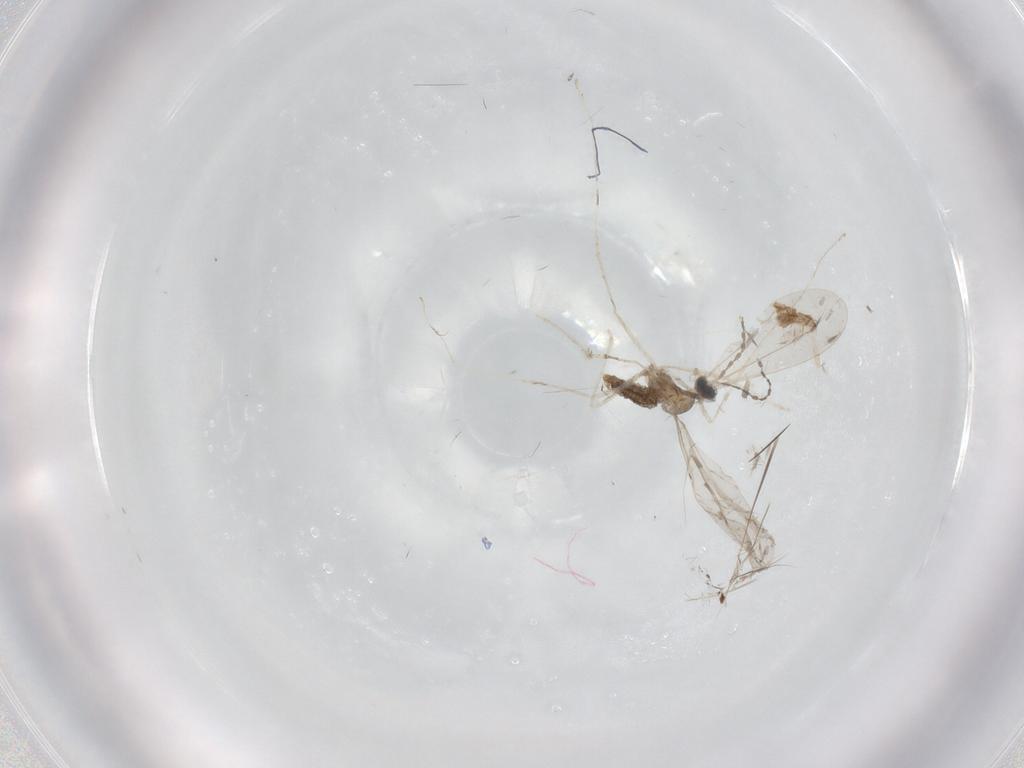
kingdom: Animalia
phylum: Arthropoda
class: Insecta
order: Diptera
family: Cecidomyiidae
